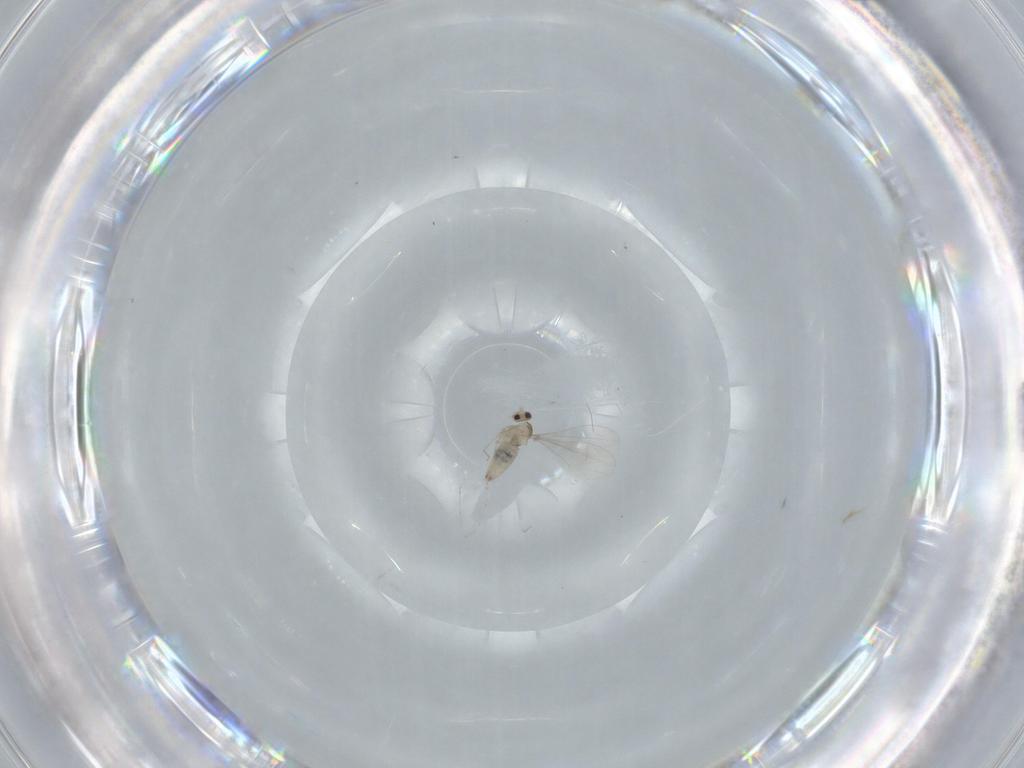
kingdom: Animalia
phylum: Arthropoda
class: Insecta
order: Diptera
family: Cecidomyiidae
